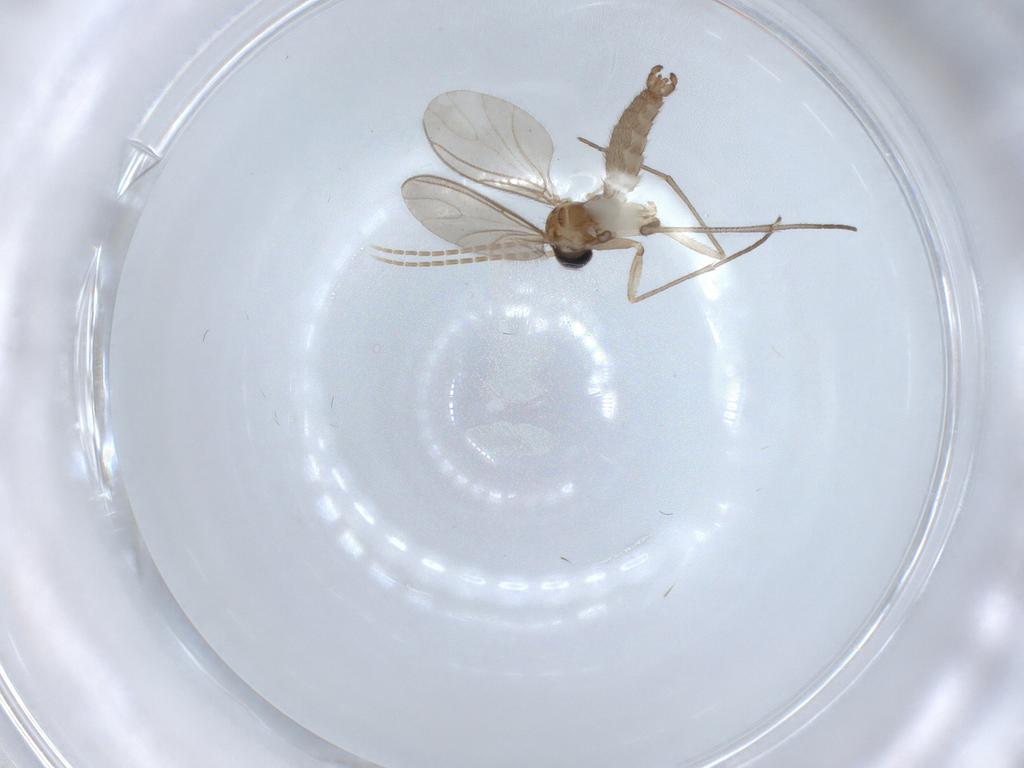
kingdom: Animalia
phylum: Arthropoda
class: Insecta
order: Diptera
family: Sciaridae
